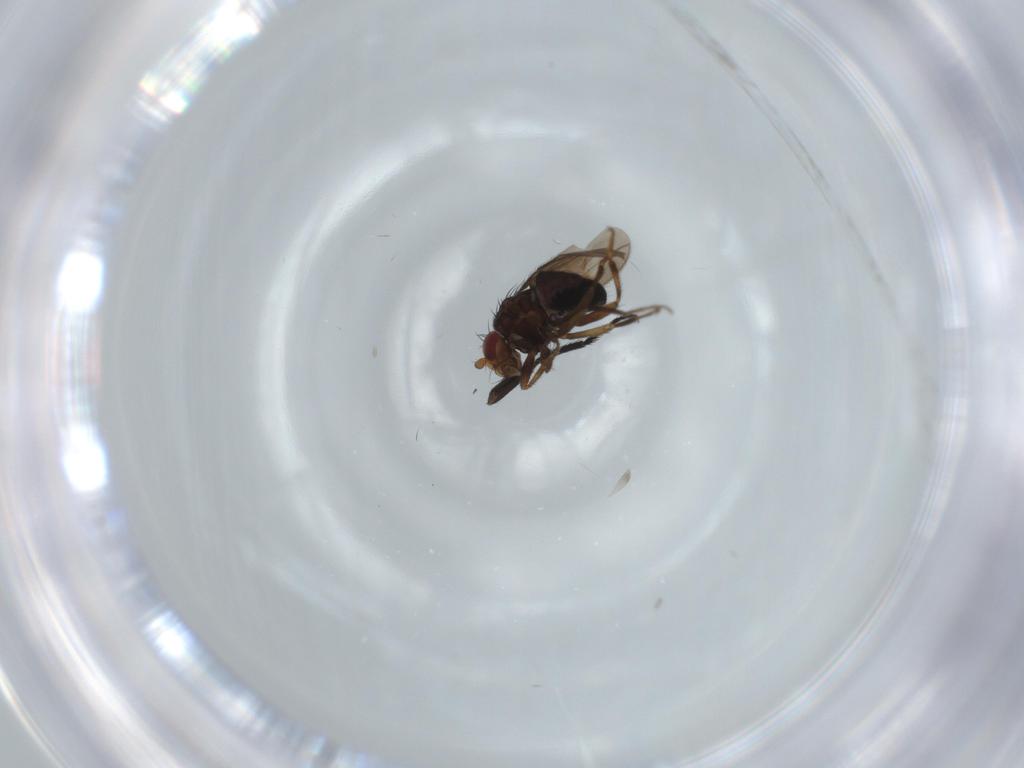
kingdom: Animalia
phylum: Arthropoda
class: Insecta
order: Diptera
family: Sphaeroceridae
